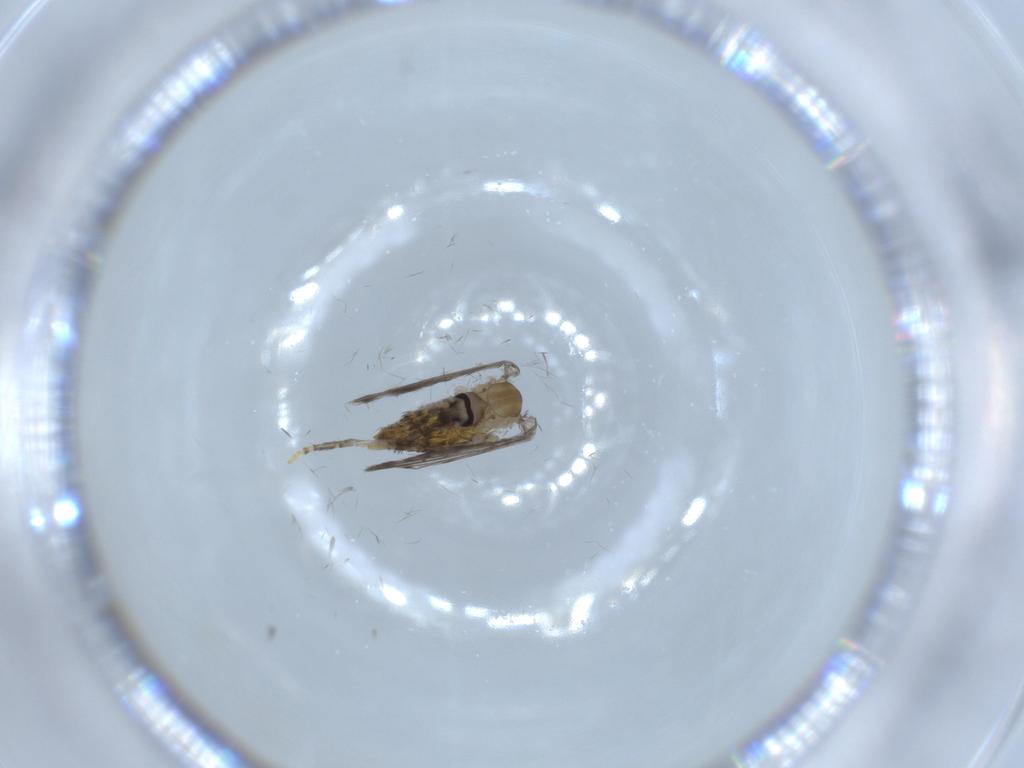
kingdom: Animalia
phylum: Arthropoda
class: Insecta
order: Diptera
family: Psychodidae
